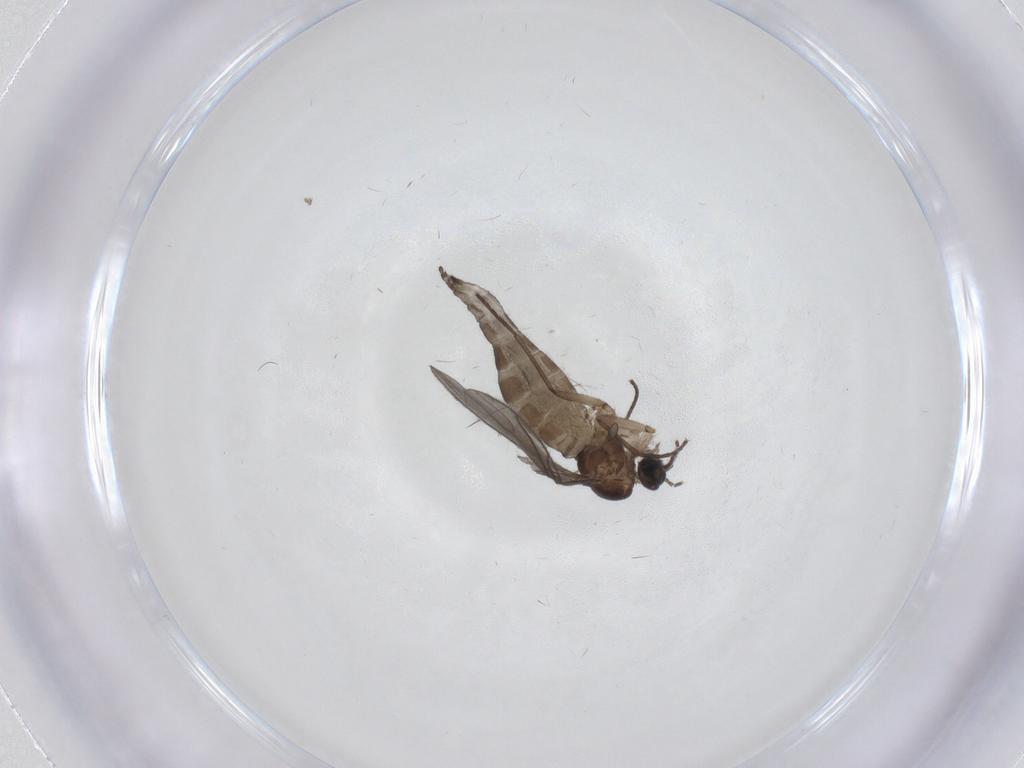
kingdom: Animalia
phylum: Arthropoda
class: Insecta
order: Diptera
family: Sciaridae
